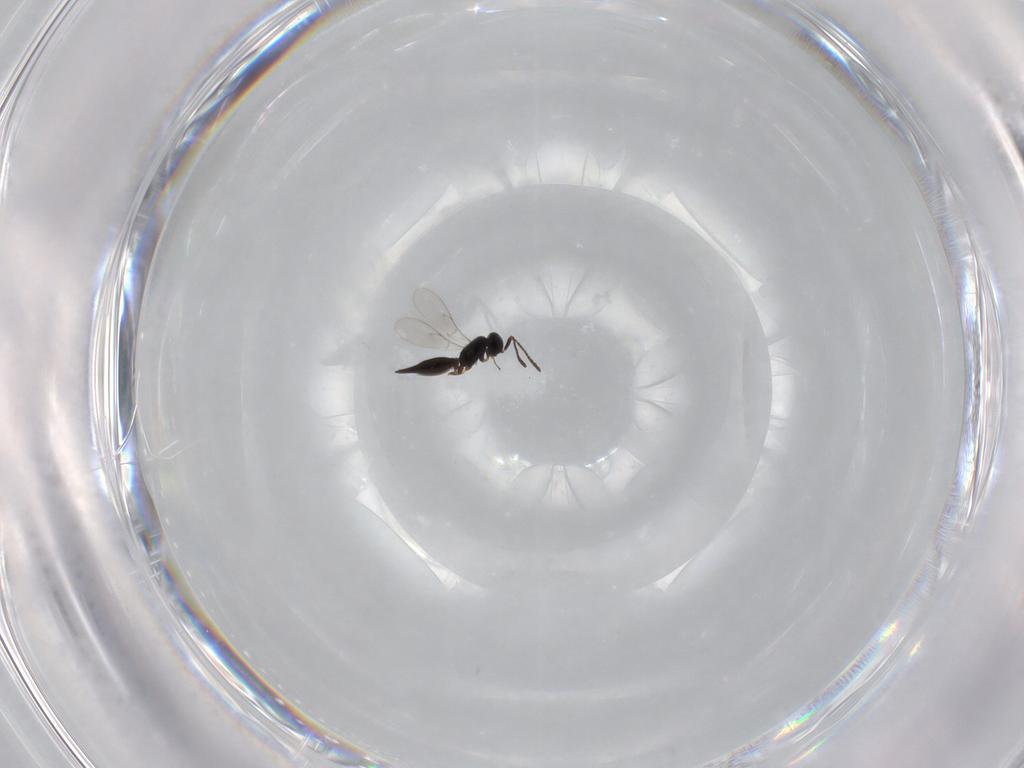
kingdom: Animalia
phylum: Arthropoda
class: Insecta
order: Hymenoptera
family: Scelionidae
